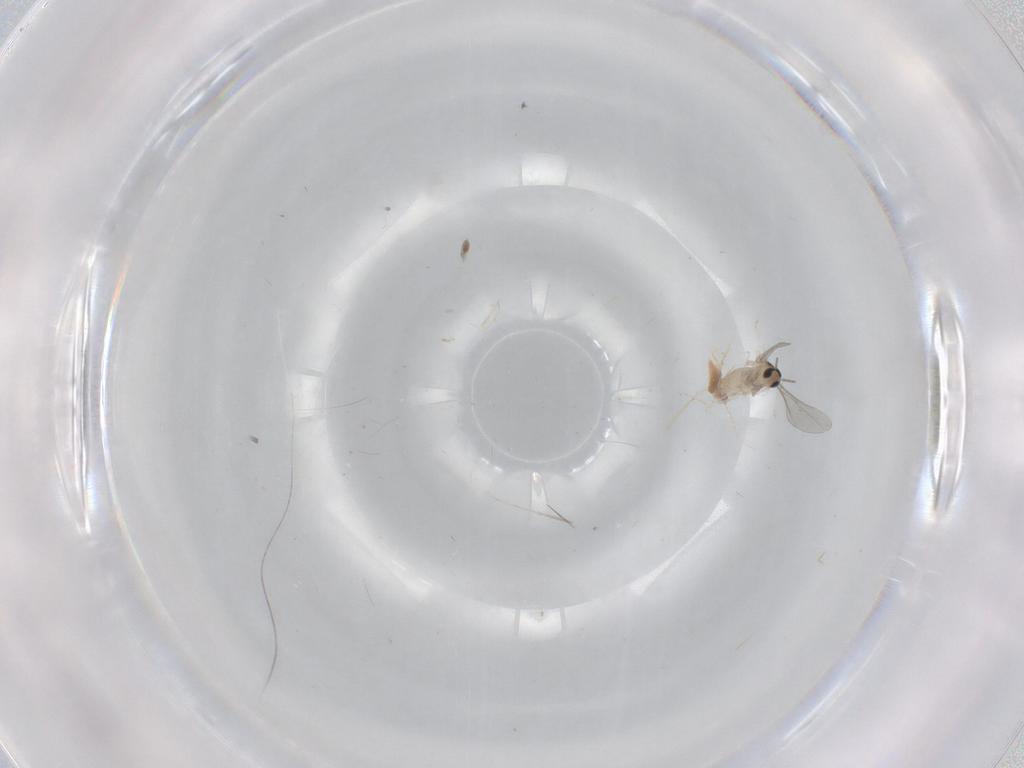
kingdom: Animalia
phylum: Arthropoda
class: Insecta
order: Diptera
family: Cecidomyiidae
